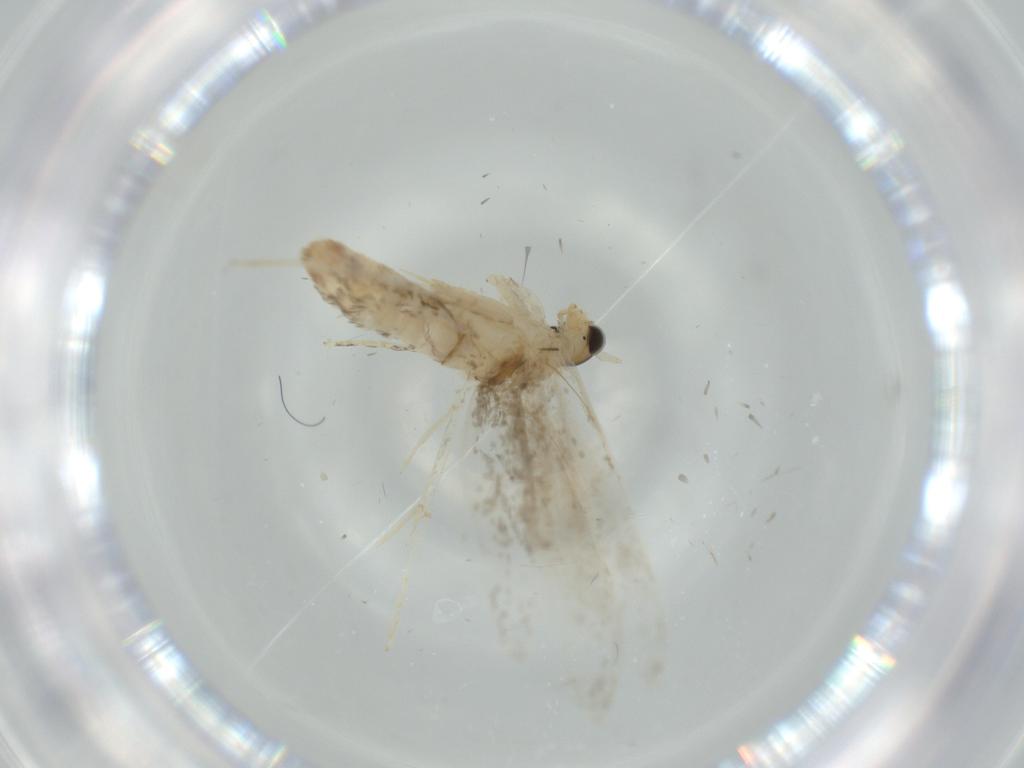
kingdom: Animalia
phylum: Arthropoda
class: Insecta
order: Lepidoptera
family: Tineidae
